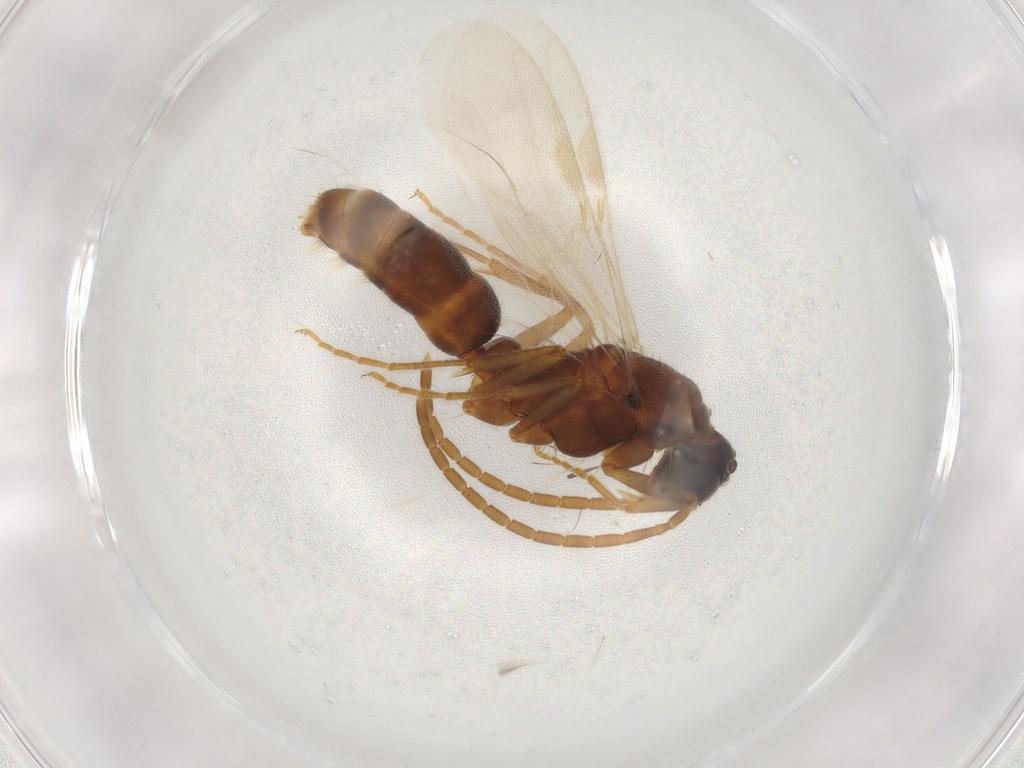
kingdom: Animalia
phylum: Arthropoda
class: Insecta
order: Hymenoptera
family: Formicidae
